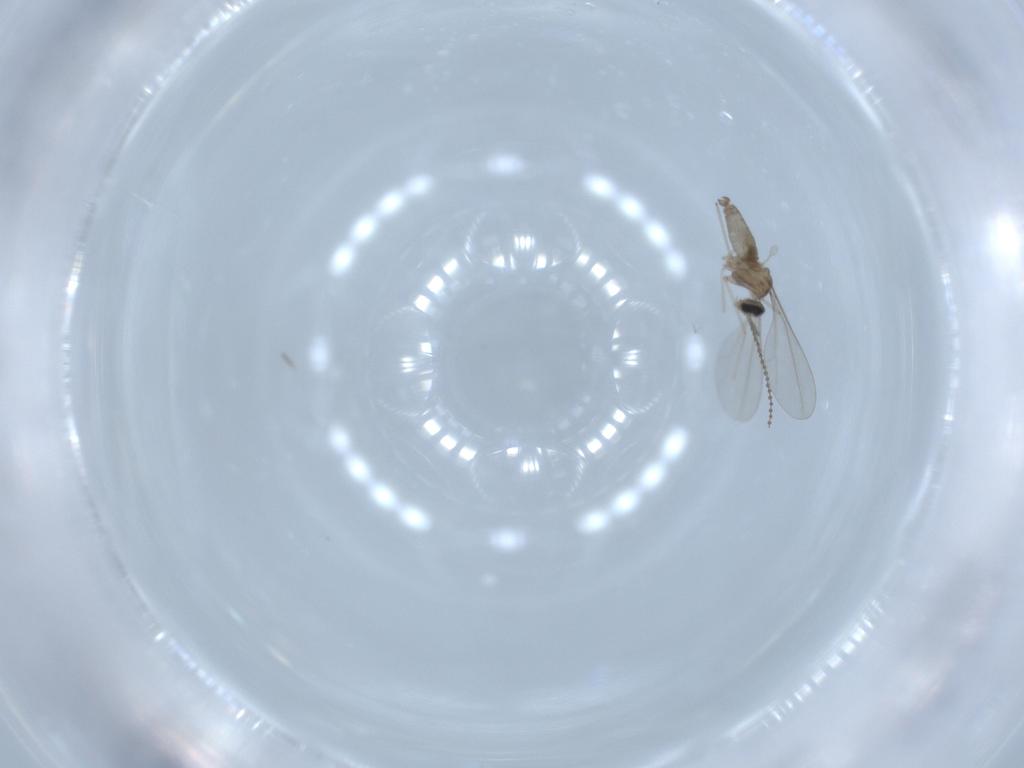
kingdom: Animalia
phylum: Arthropoda
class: Insecta
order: Diptera
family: Cecidomyiidae
